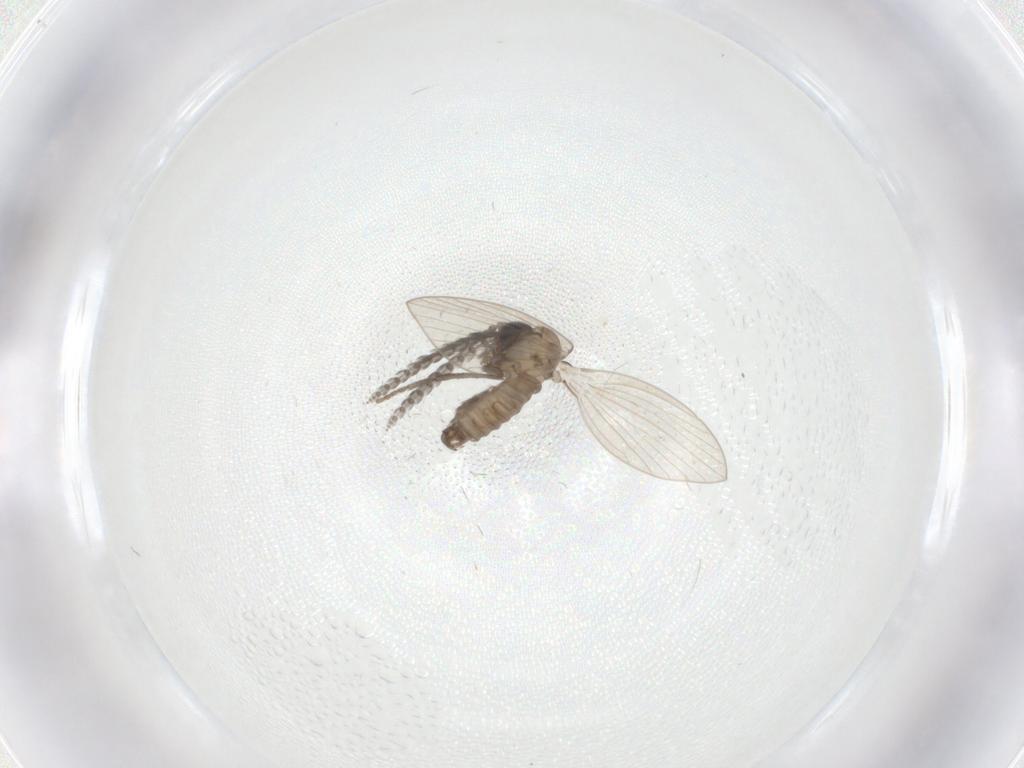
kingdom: Animalia
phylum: Arthropoda
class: Insecta
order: Diptera
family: Psychodidae
